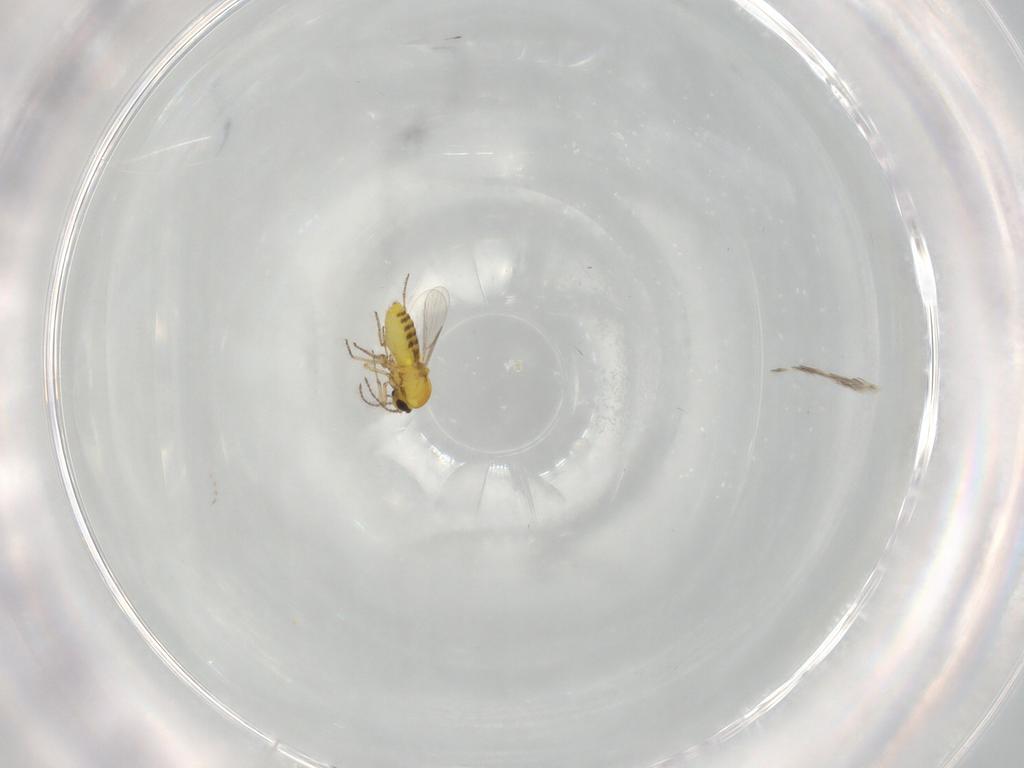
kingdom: Animalia
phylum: Arthropoda
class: Insecta
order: Diptera
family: Ceratopogonidae
